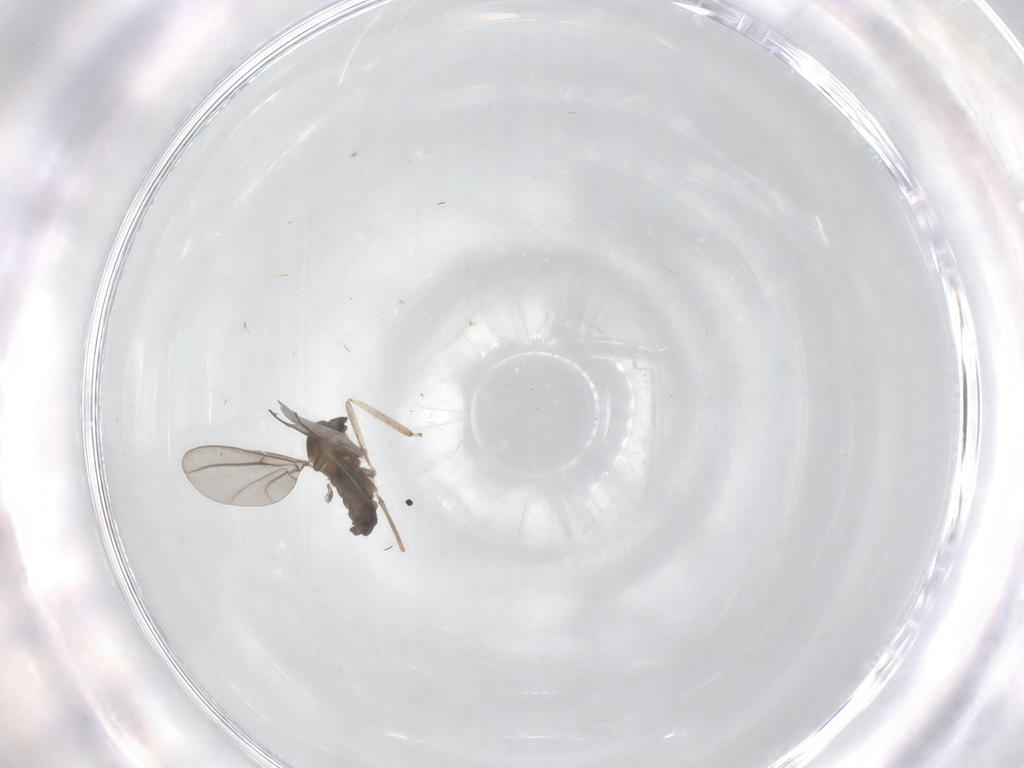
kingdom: Animalia
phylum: Arthropoda
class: Insecta
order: Diptera
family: Cecidomyiidae
